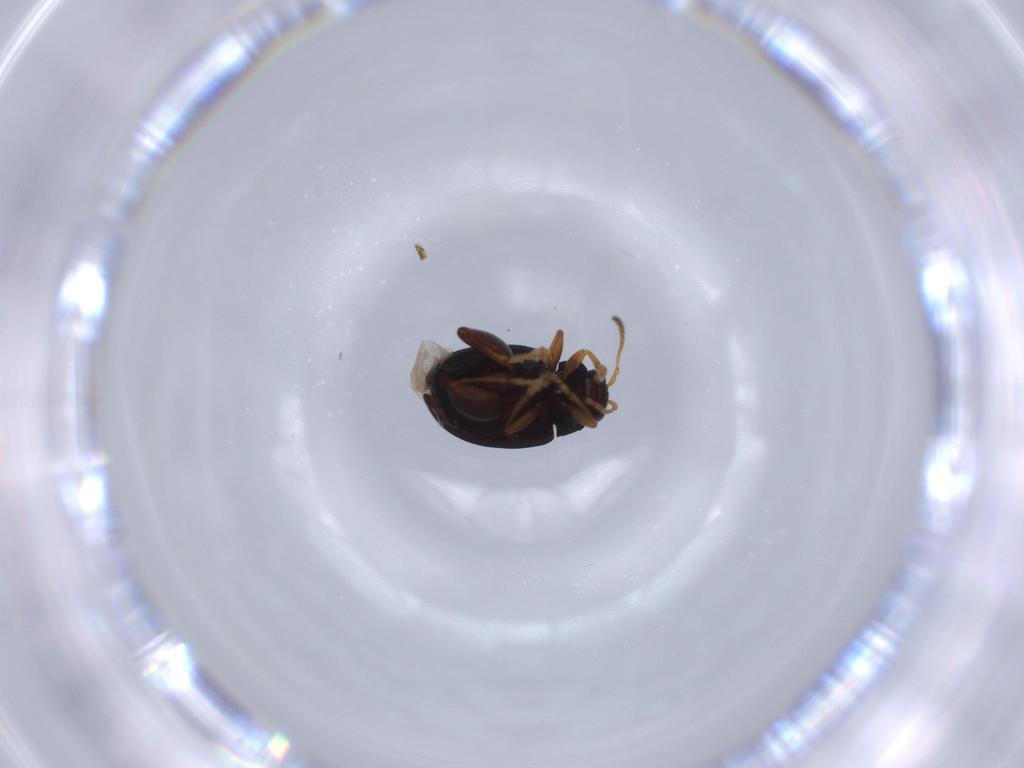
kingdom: Animalia
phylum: Arthropoda
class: Insecta
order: Coleoptera
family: Chrysomelidae
